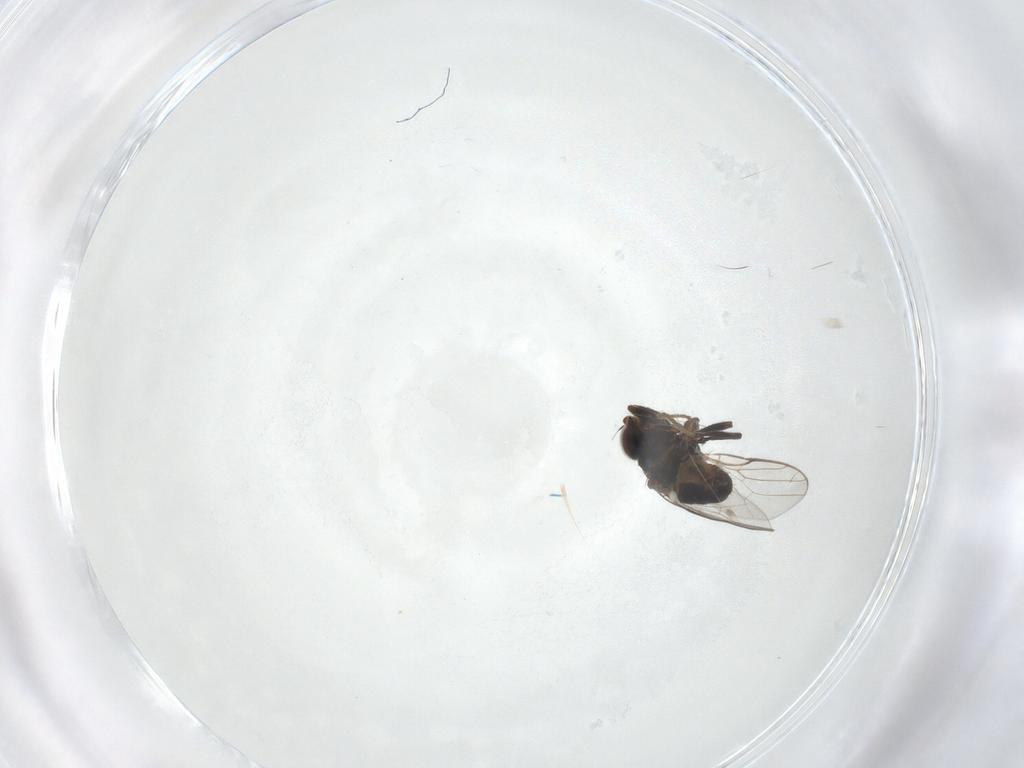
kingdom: Animalia
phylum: Arthropoda
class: Insecta
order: Diptera
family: Chloropidae
